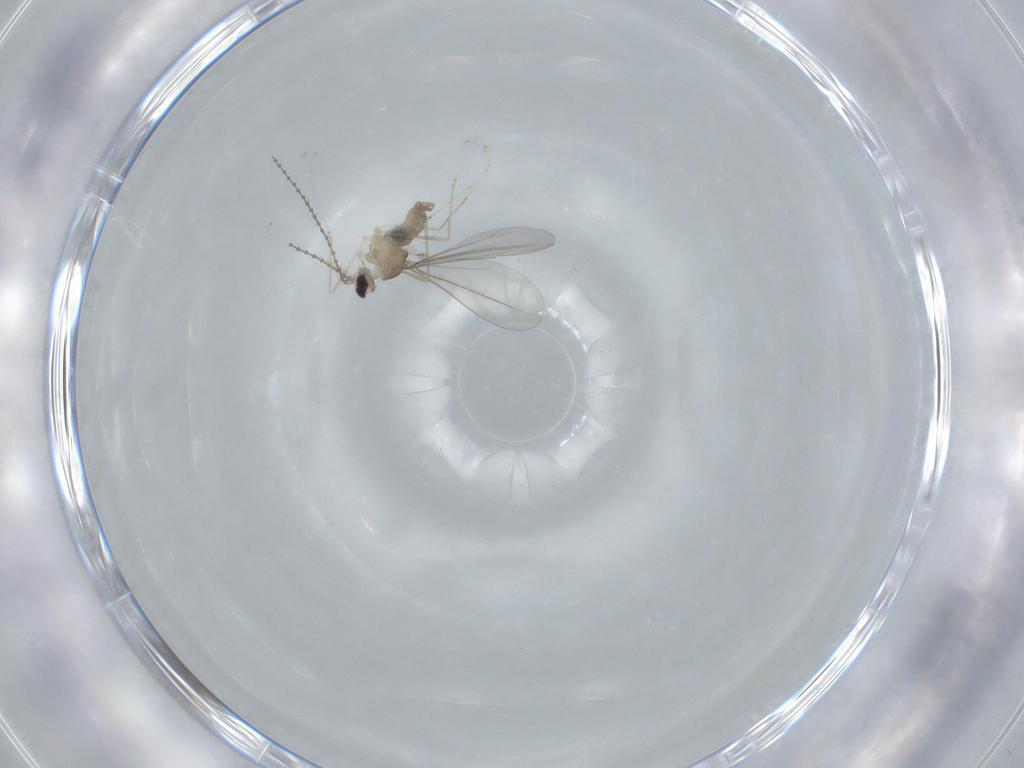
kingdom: Animalia
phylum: Arthropoda
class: Insecta
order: Diptera
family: Cecidomyiidae
